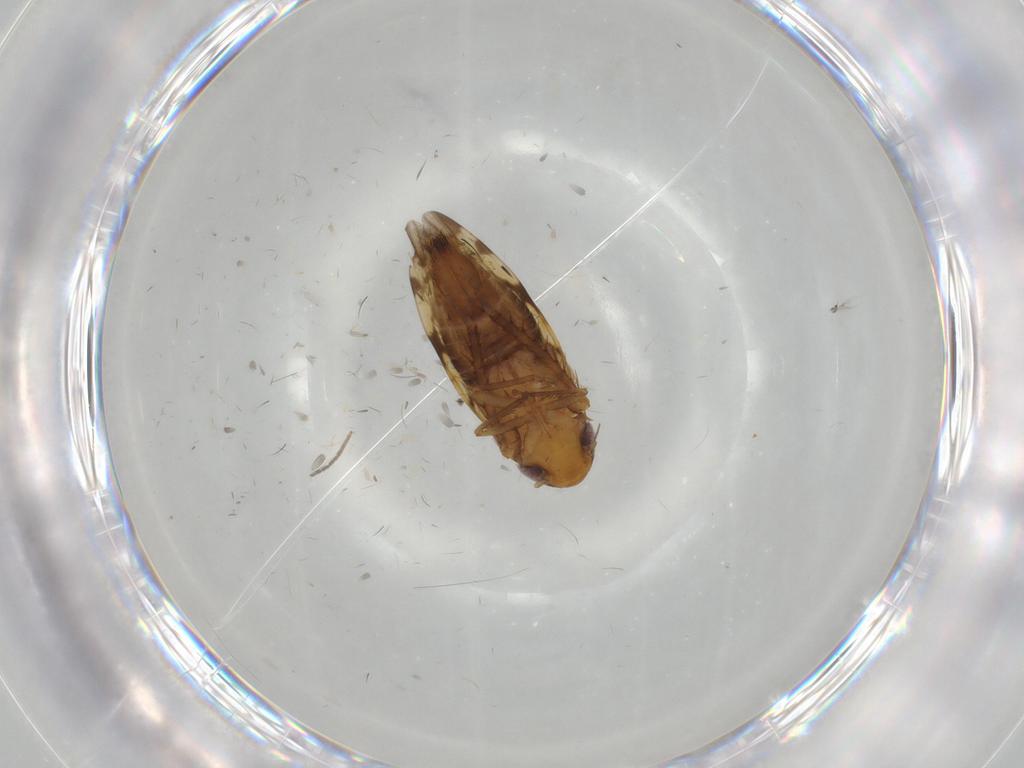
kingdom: Animalia
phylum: Arthropoda
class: Insecta
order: Hemiptera
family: Cicadellidae
